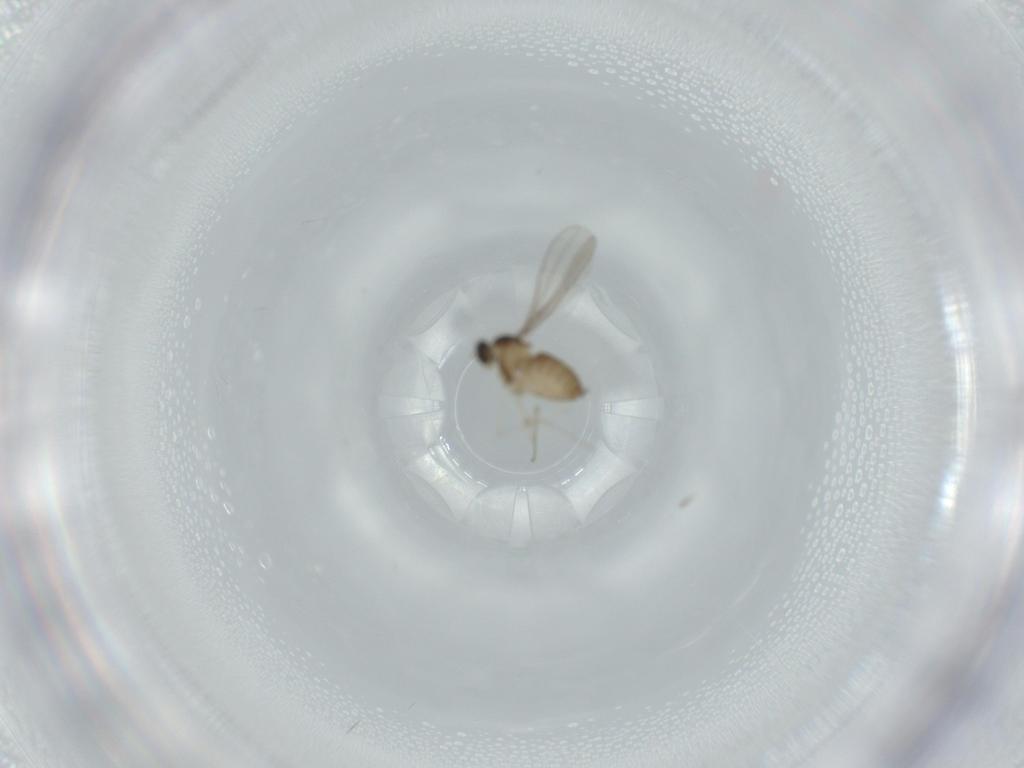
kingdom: Animalia
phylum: Arthropoda
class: Insecta
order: Diptera
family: Cecidomyiidae
